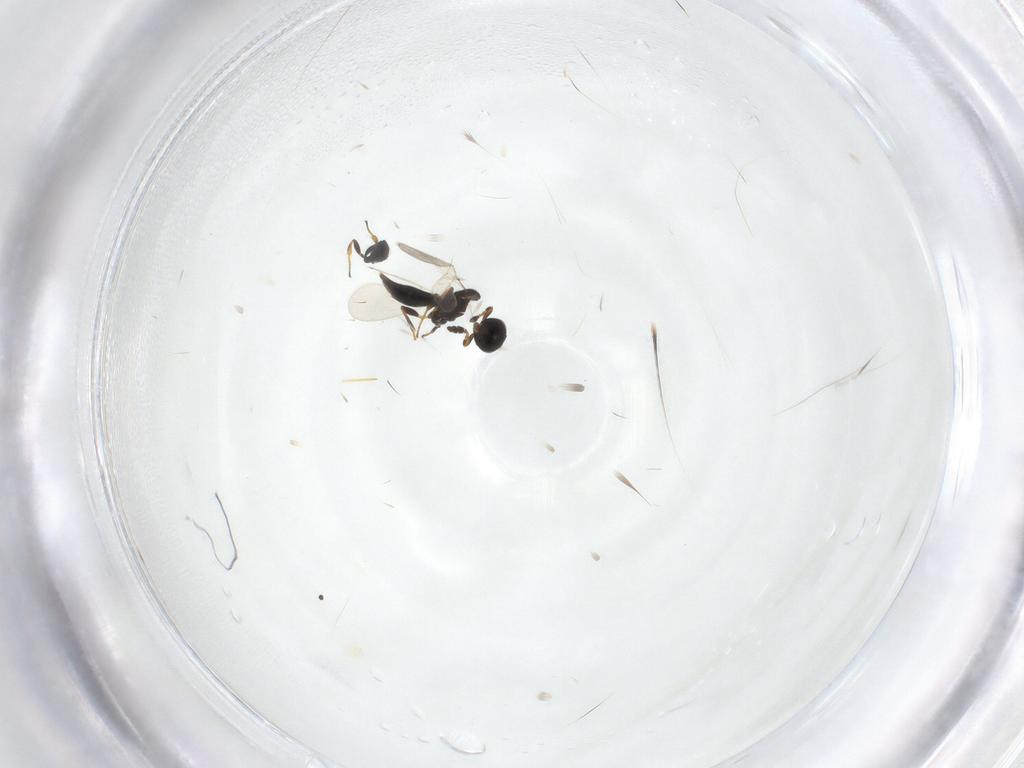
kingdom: Animalia
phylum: Arthropoda
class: Insecta
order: Hymenoptera
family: Platygastridae
